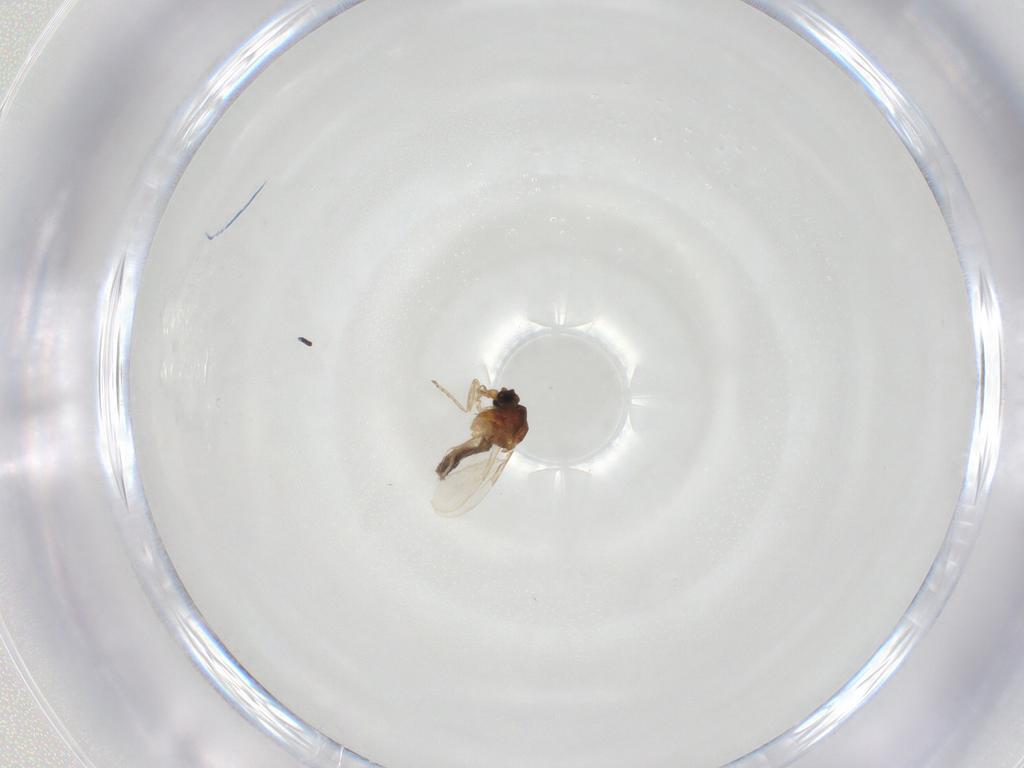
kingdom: Animalia
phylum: Arthropoda
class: Insecta
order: Diptera
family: Ceratopogonidae
